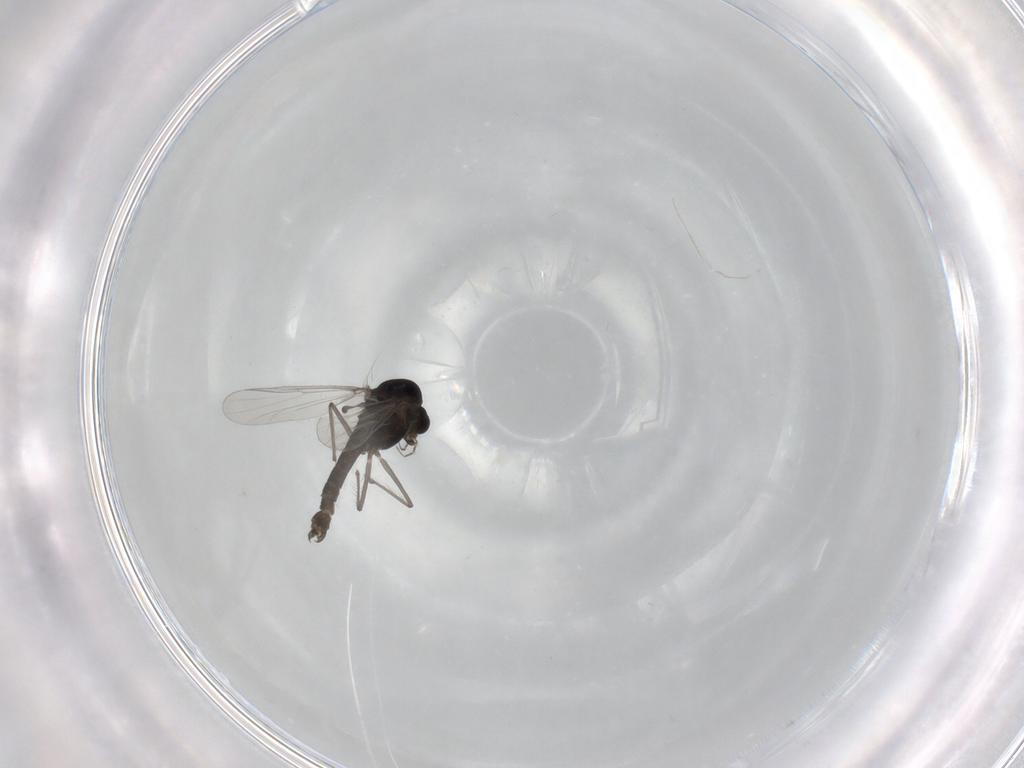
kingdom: Animalia
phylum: Arthropoda
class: Insecta
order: Diptera
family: Chironomidae
